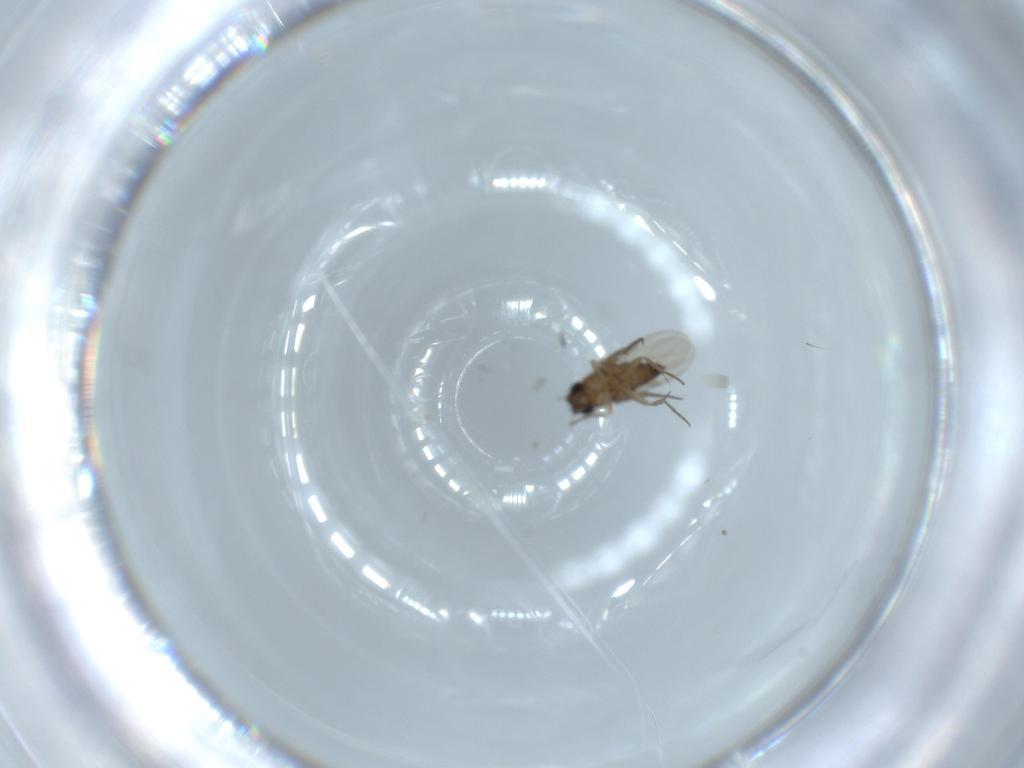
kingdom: Animalia
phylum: Arthropoda
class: Insecta
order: Diptera
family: Phoridae
